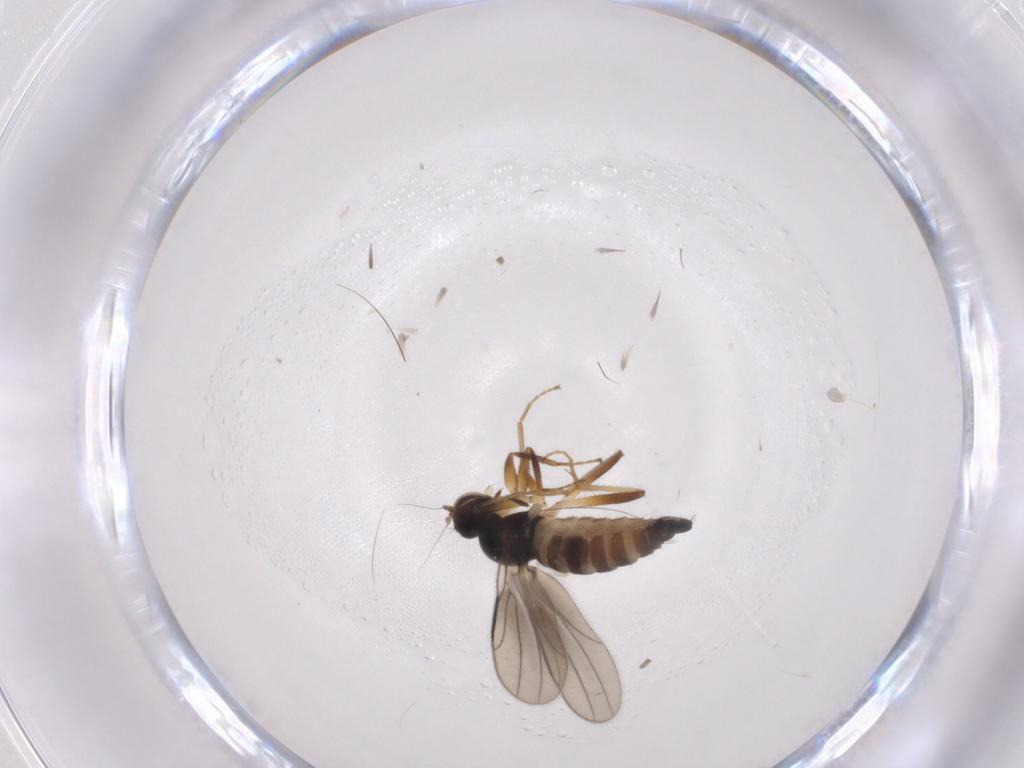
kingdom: Animalia
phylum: Arthropoda
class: Insecta
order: Diptera
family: Hybotidae
